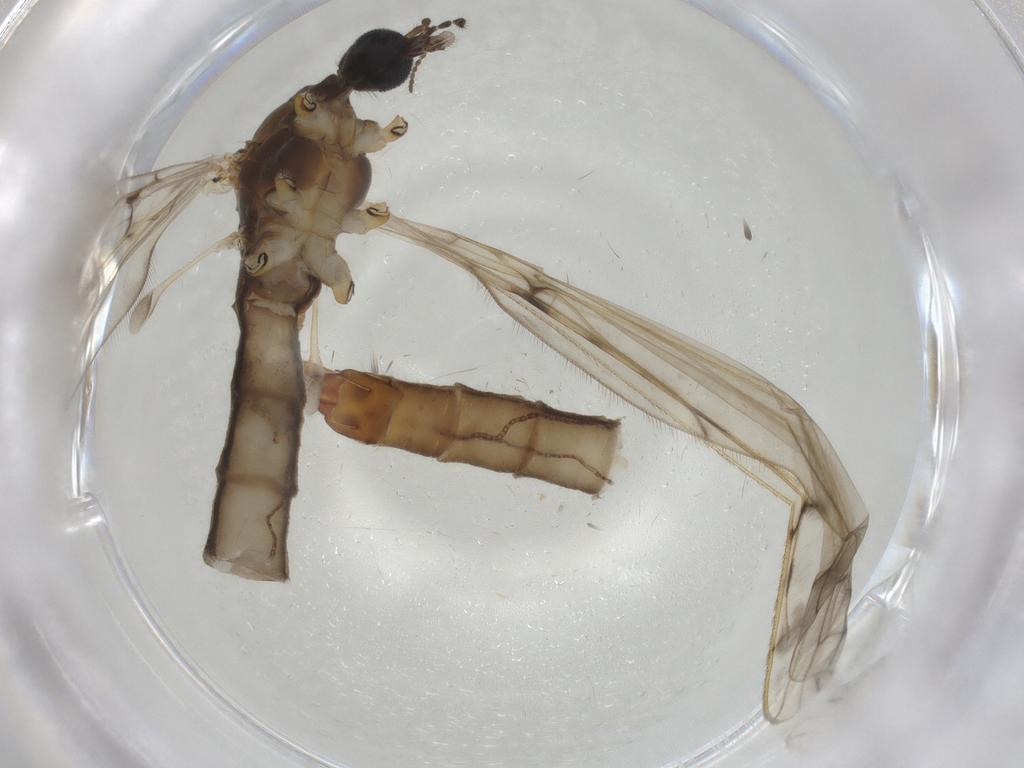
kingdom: Animalia
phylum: Arthropoda
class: Insecta
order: Diptera
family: Limoniidae
